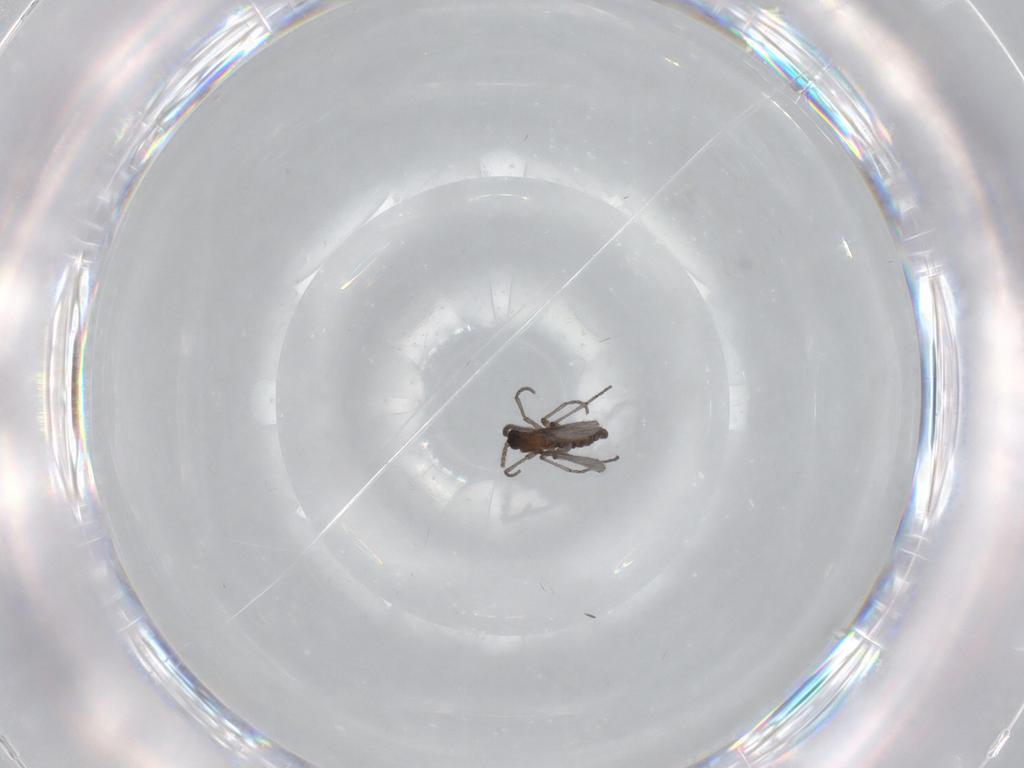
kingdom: Animalia
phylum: Arthropoda
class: Insecta
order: Diptera
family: Sciaridae
